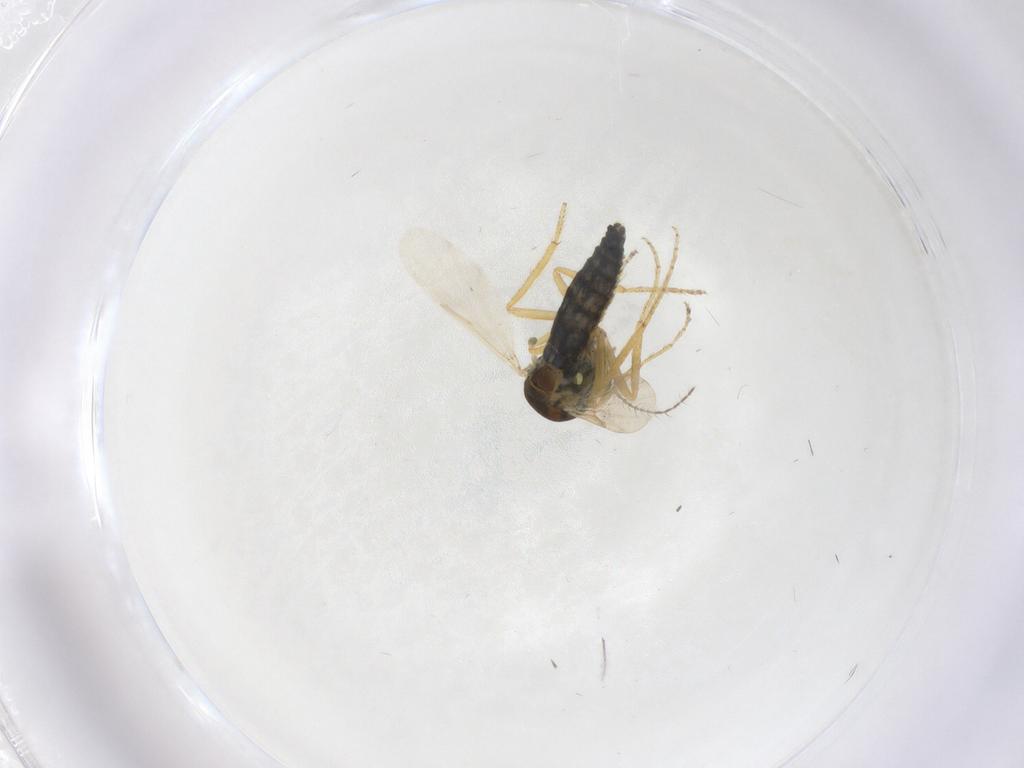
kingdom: Animalia
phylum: Arthropoda
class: Insecta
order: Diptera
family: Ceratopogonidae
